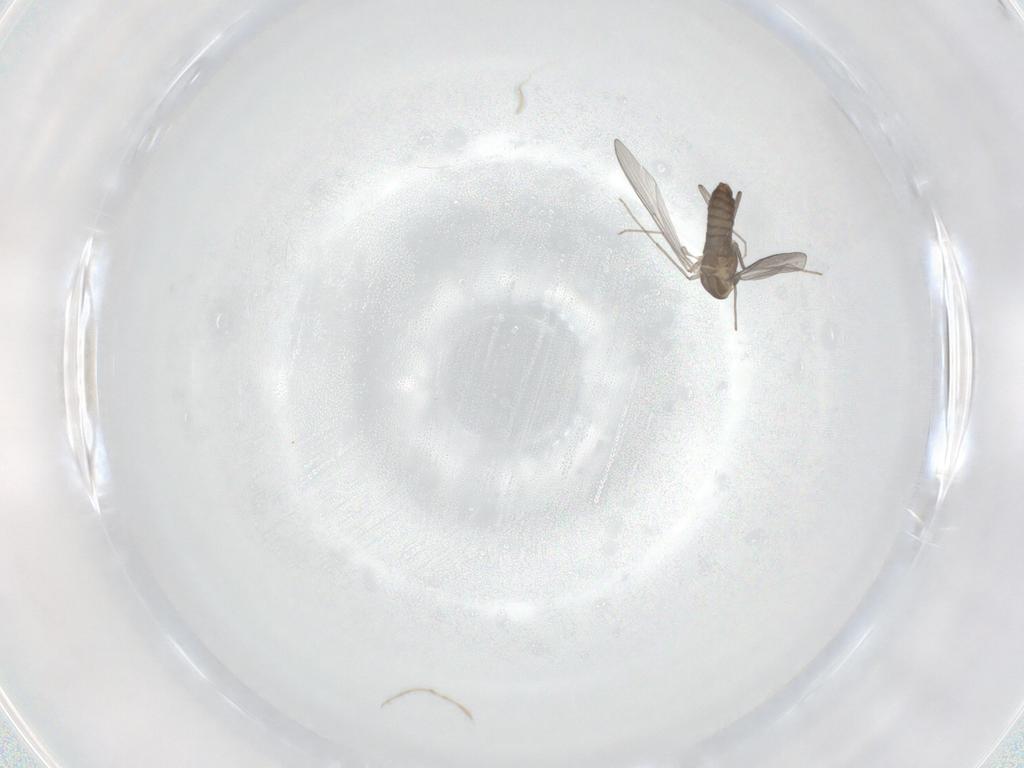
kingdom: Animalia
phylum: Arthropoda
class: Insecta
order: Diptera
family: Chironomidae
